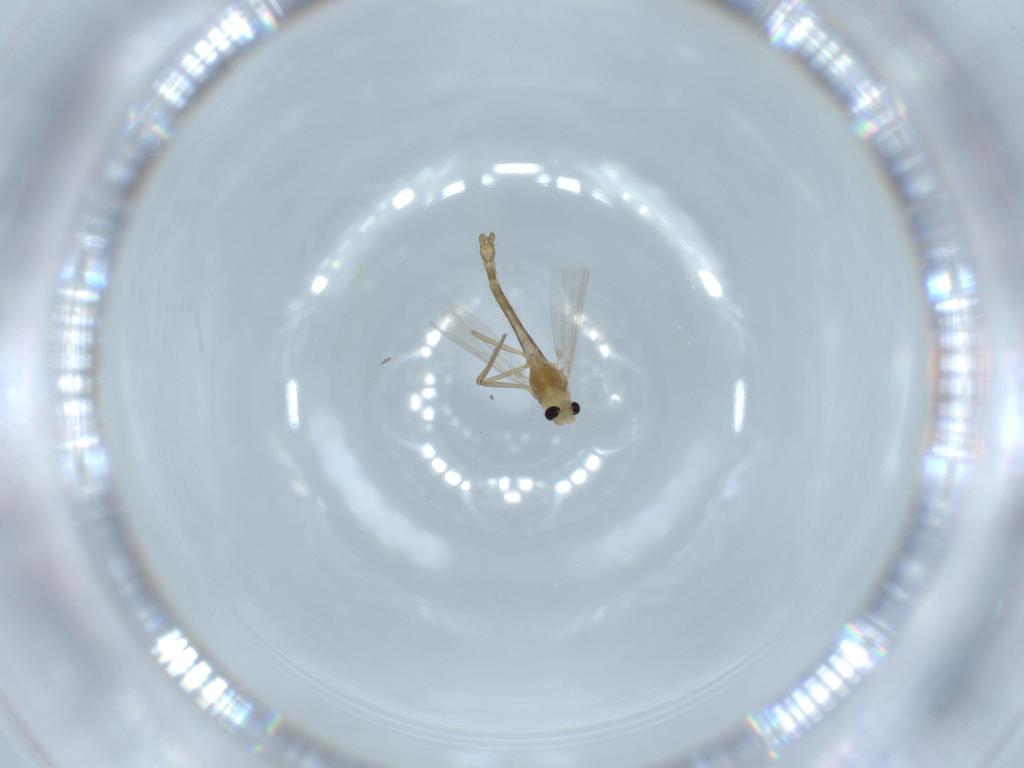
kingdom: Animalia
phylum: Arthropoda
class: Insecta
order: Diptera
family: Chironomidae
